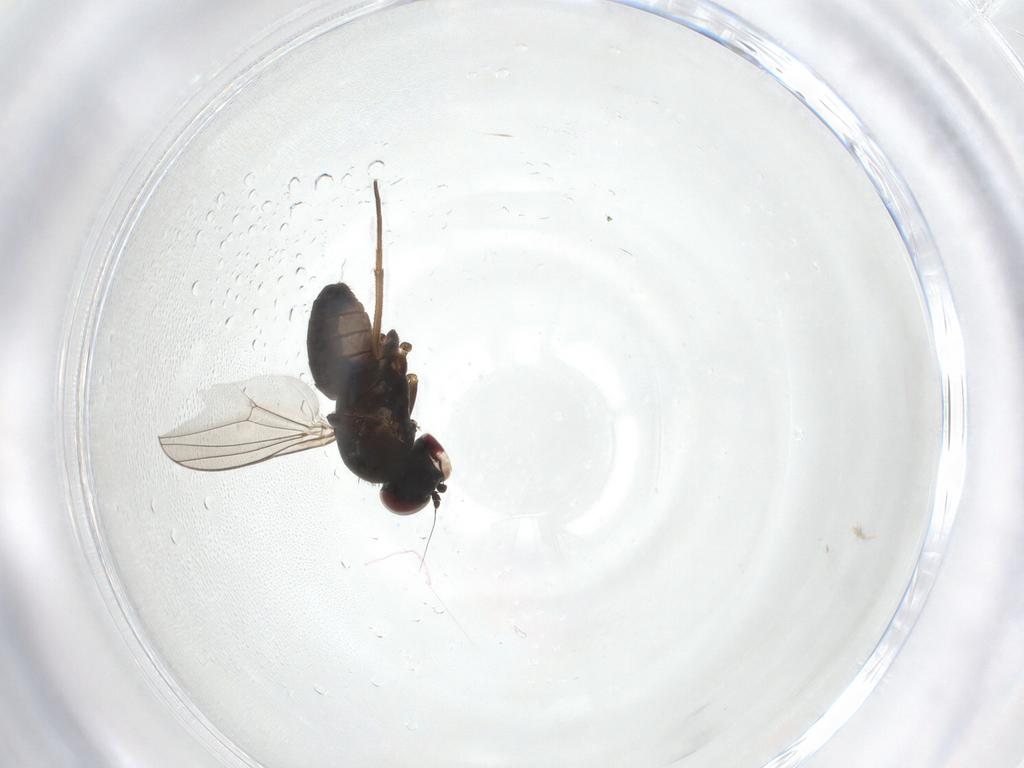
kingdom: Animalia
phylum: Arthropoda
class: Insecta
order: Diptera
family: Dolichopodidae
